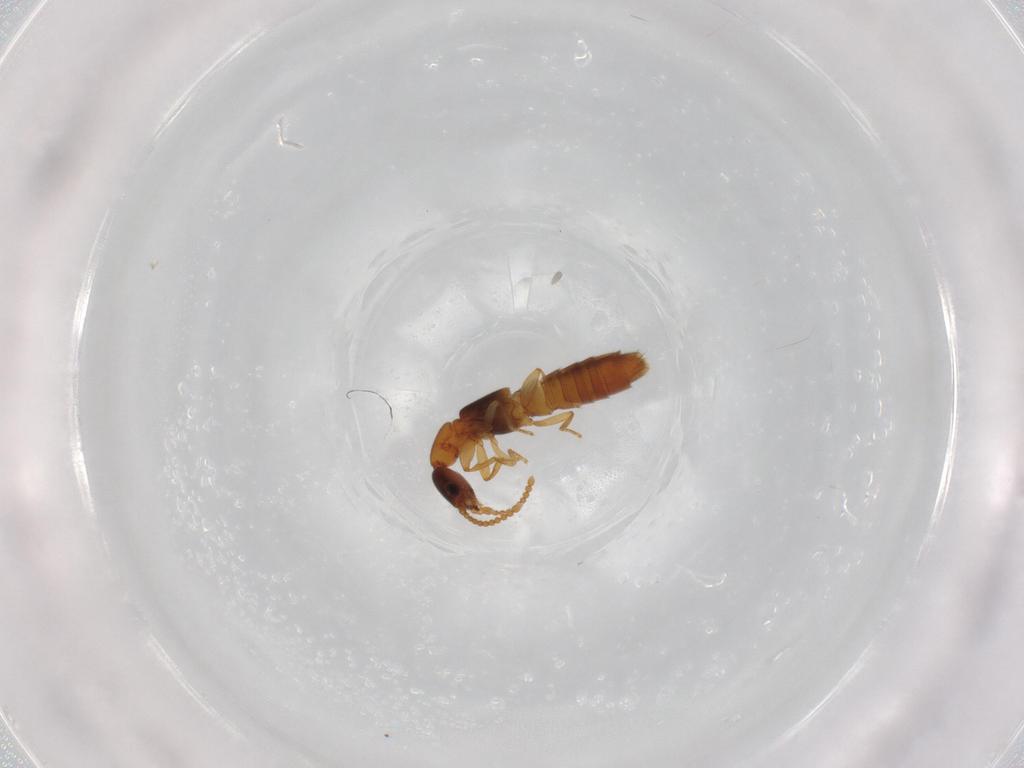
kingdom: Animalia
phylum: Arthropoda
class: Insecta
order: Coleoptera
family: Staphylinidae
